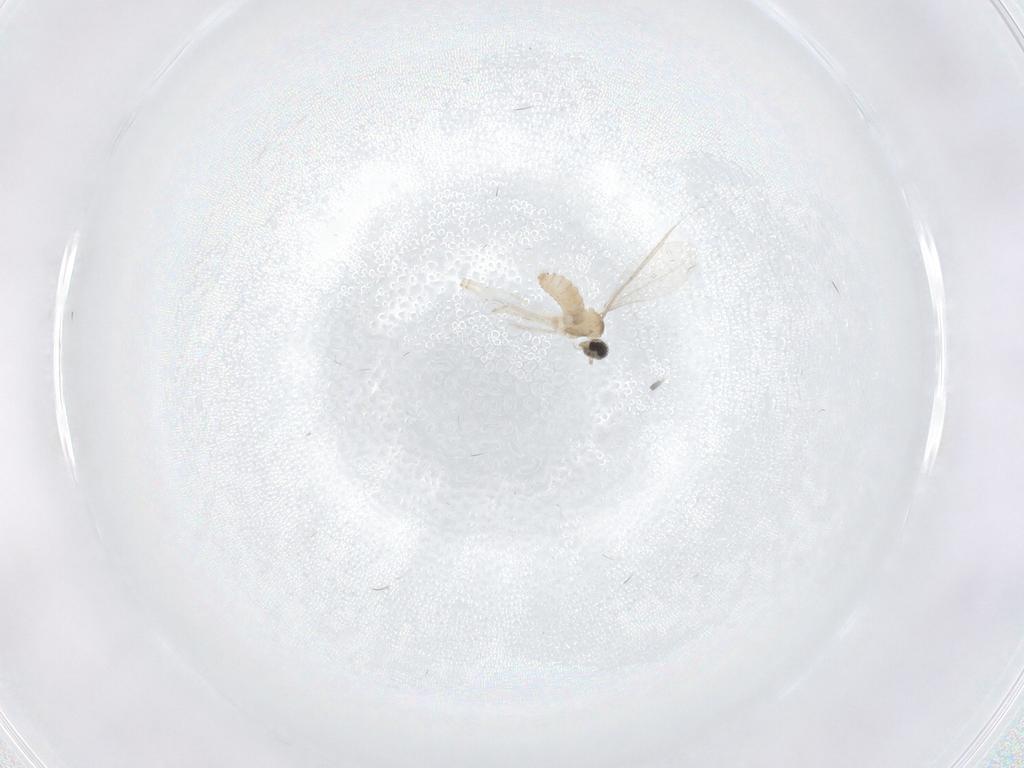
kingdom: Animalia
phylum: Arthropoda
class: Insecta
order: Diptera
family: Cecidomyiidae
